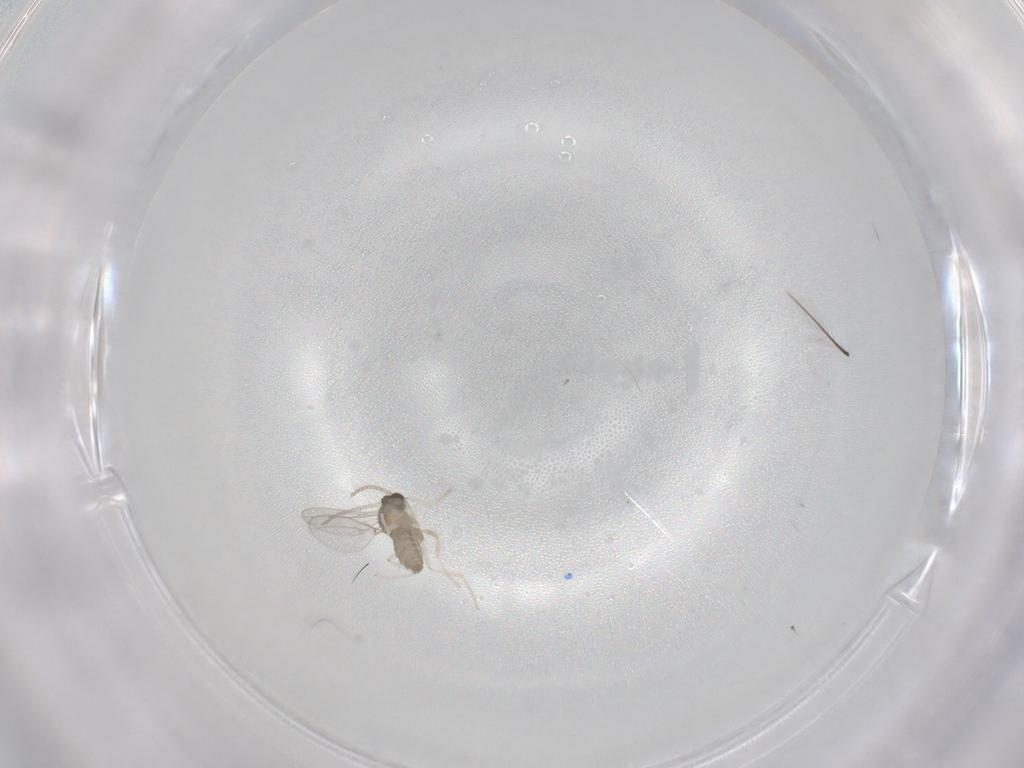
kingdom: Animalia
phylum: Arthropoda
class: Insecta
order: Diptera
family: Cecidomyiidae
